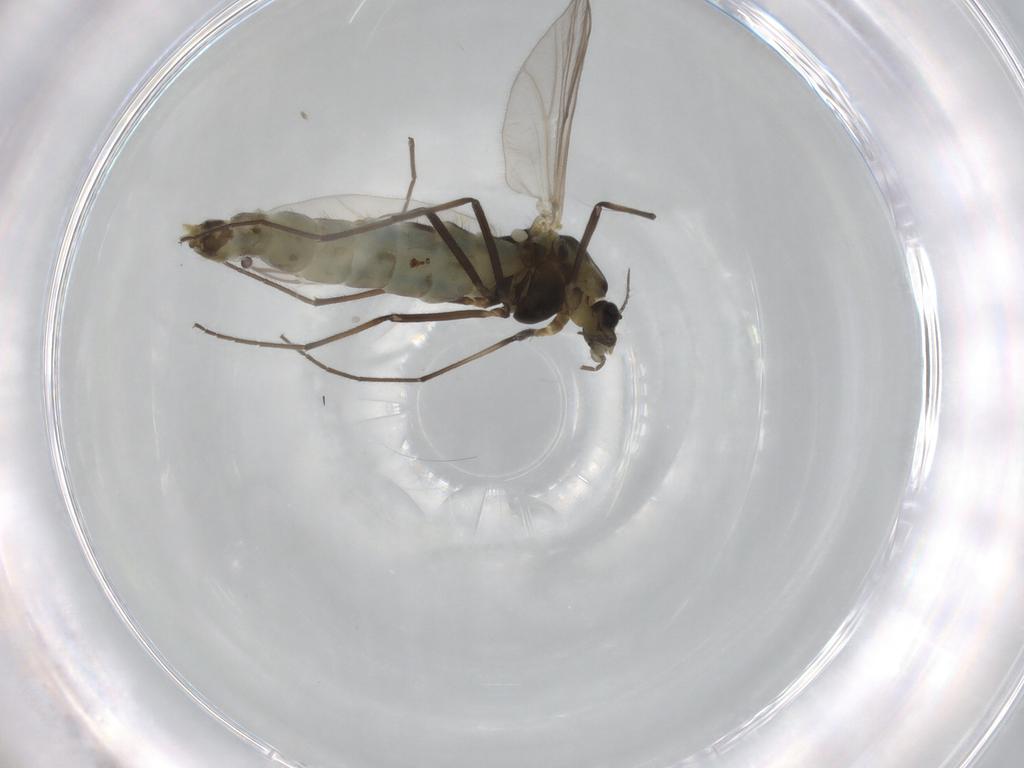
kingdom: Animalia
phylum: Arthropoda
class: Insecta
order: Diptera
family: Chironomidae
